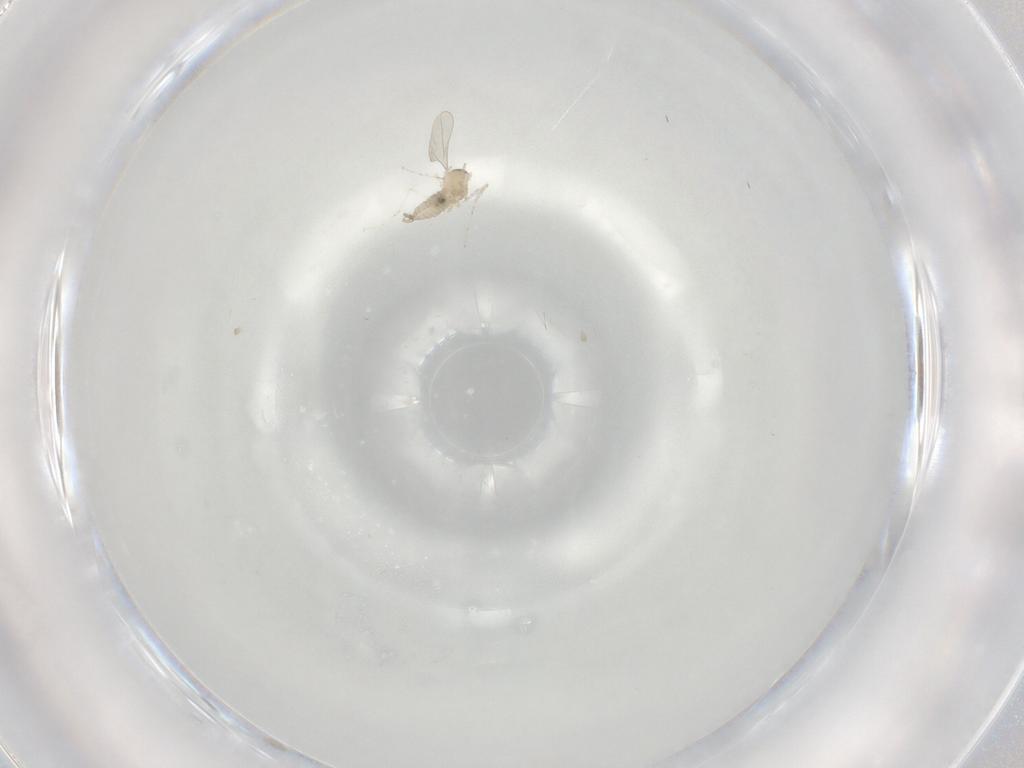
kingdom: Animalia
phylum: Arthropoda
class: Insecta
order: Diptera
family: Cecidomyiidae
